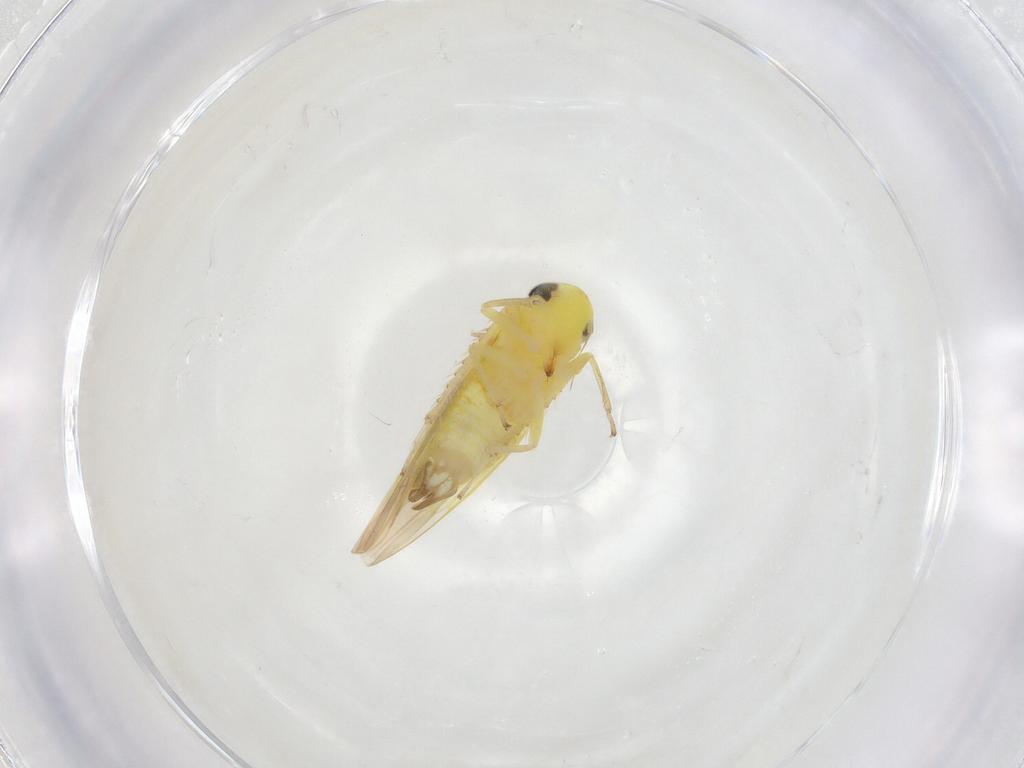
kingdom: Animalia
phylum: Arthropoda
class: Insecta
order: Hemiptera
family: Cicadellidae
